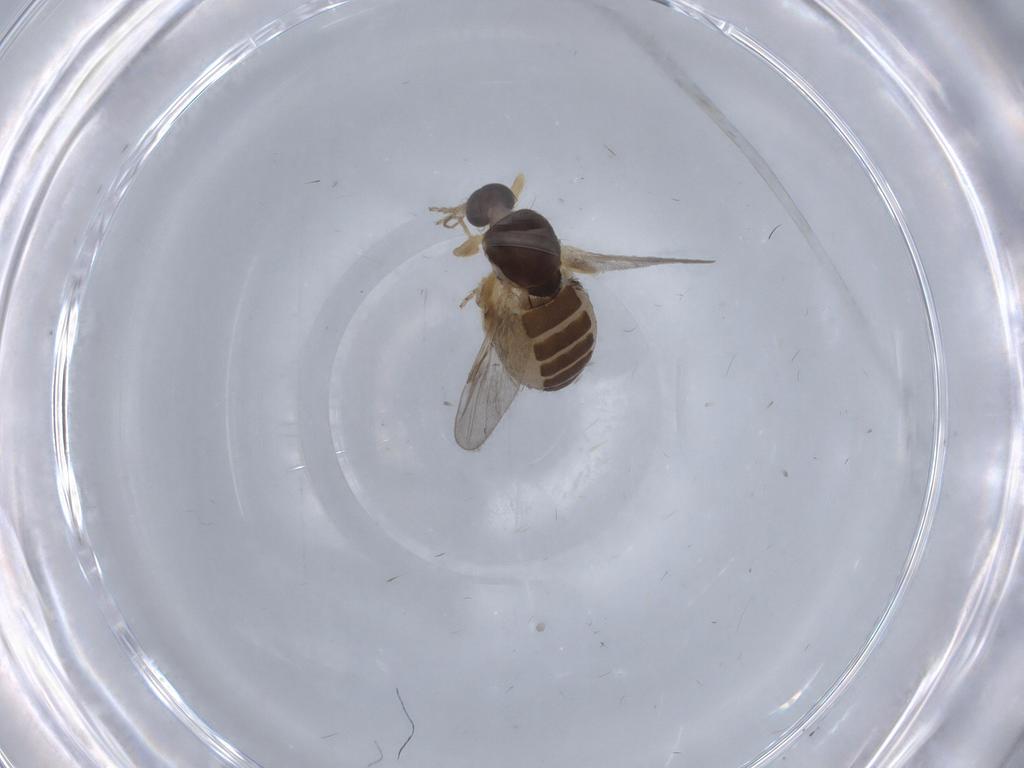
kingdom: Animalia
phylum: Arthropoda
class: Insecta
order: Diptera
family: Ceratopogonidae
